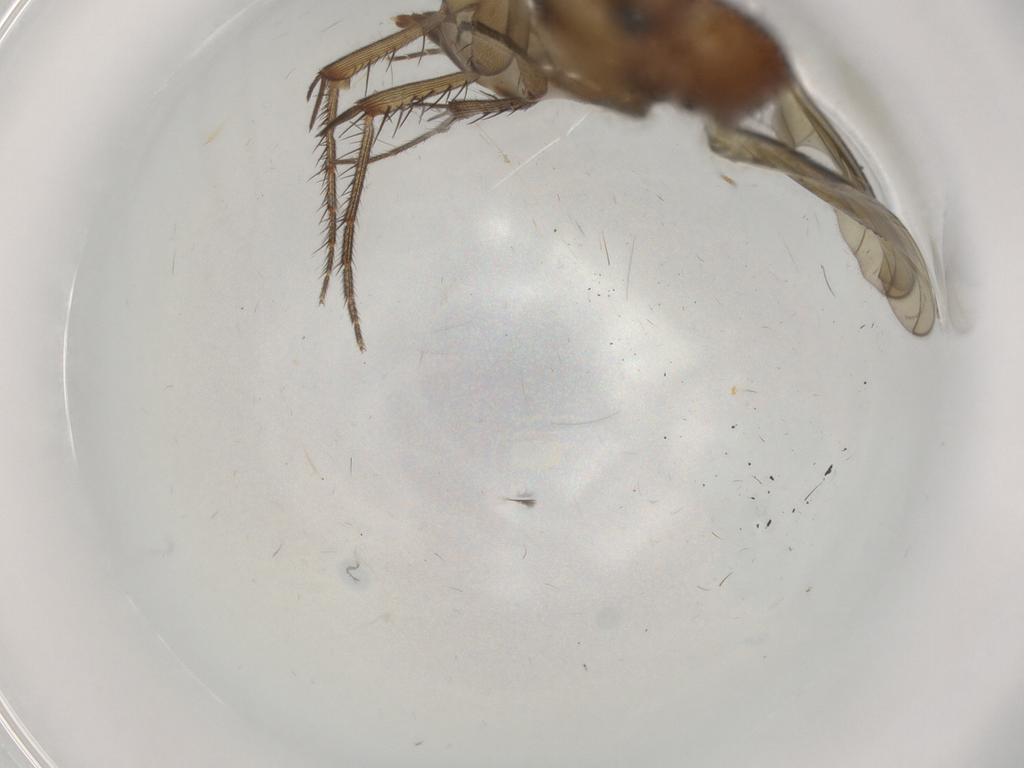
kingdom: Animalia
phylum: Arthropoda
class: Insecta
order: Diptera
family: Mycetophilidae
